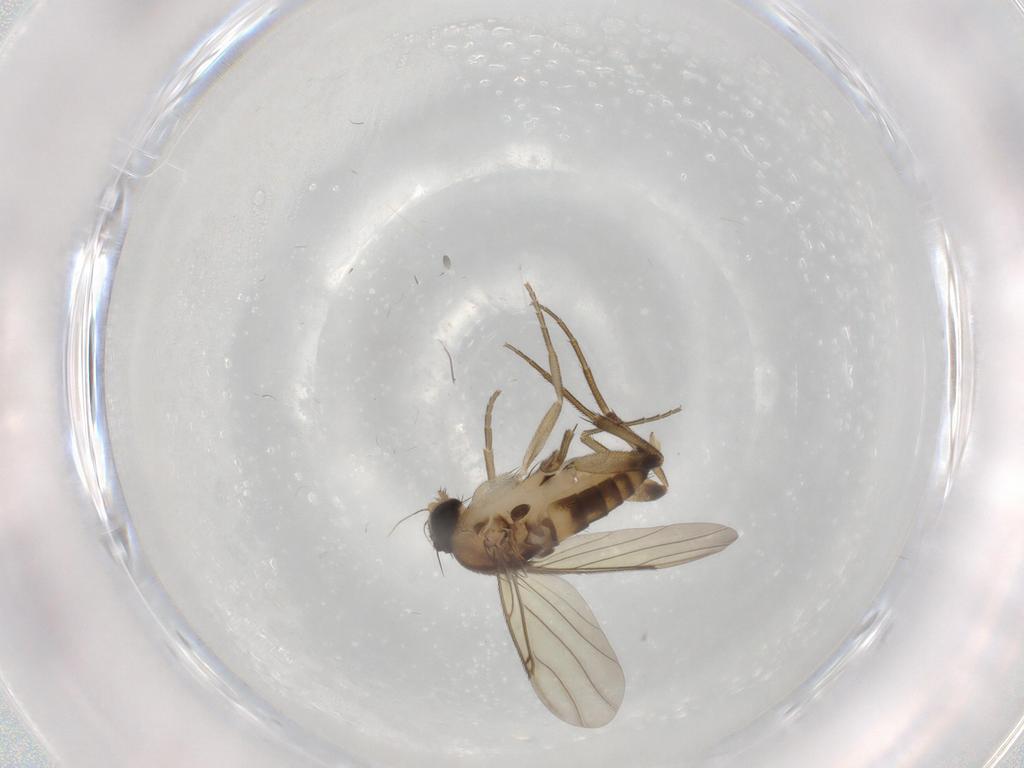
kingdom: Animalia
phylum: Arthropoda
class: Insecta
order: Diptera
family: Phoridae
